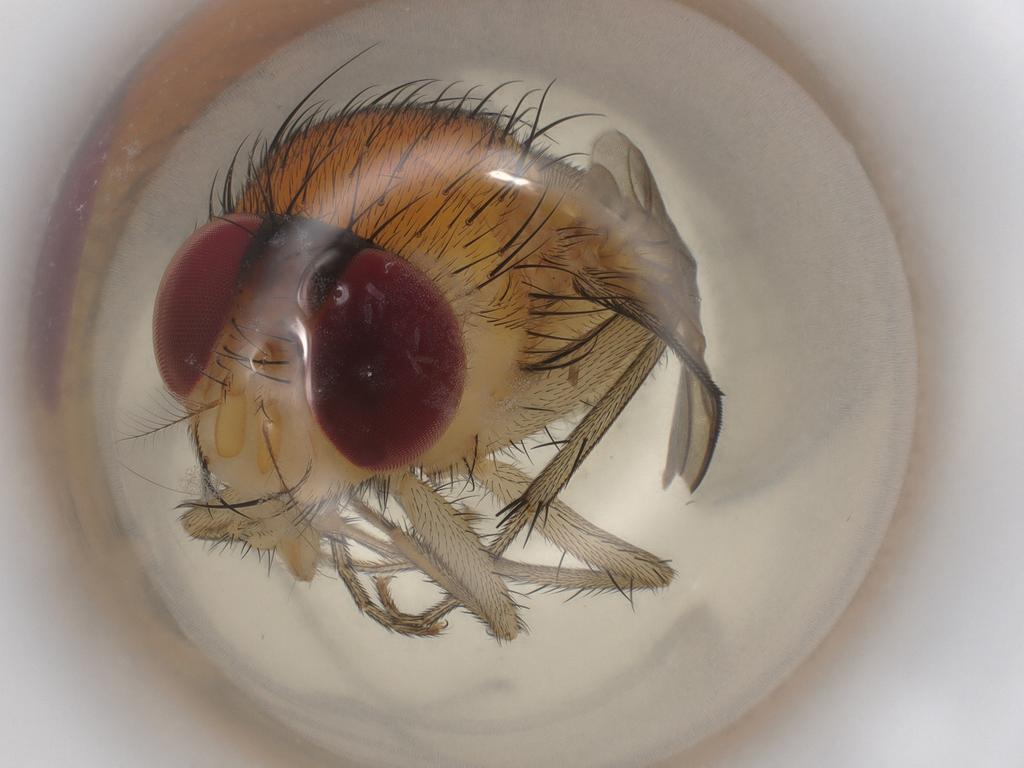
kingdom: Animalia
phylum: Arthropoda
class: Insecta
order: Diptera
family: Calliphoridae
